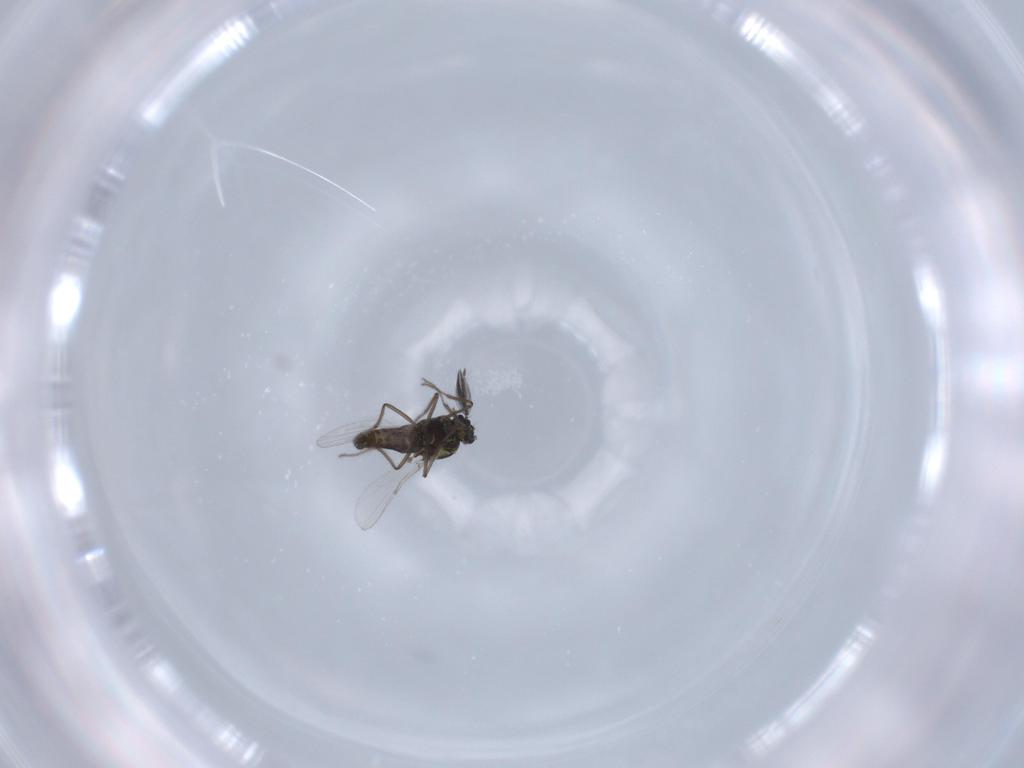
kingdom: Animalia
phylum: Arthropoda
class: Insecta
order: Diptera
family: Ceratopogonidae
